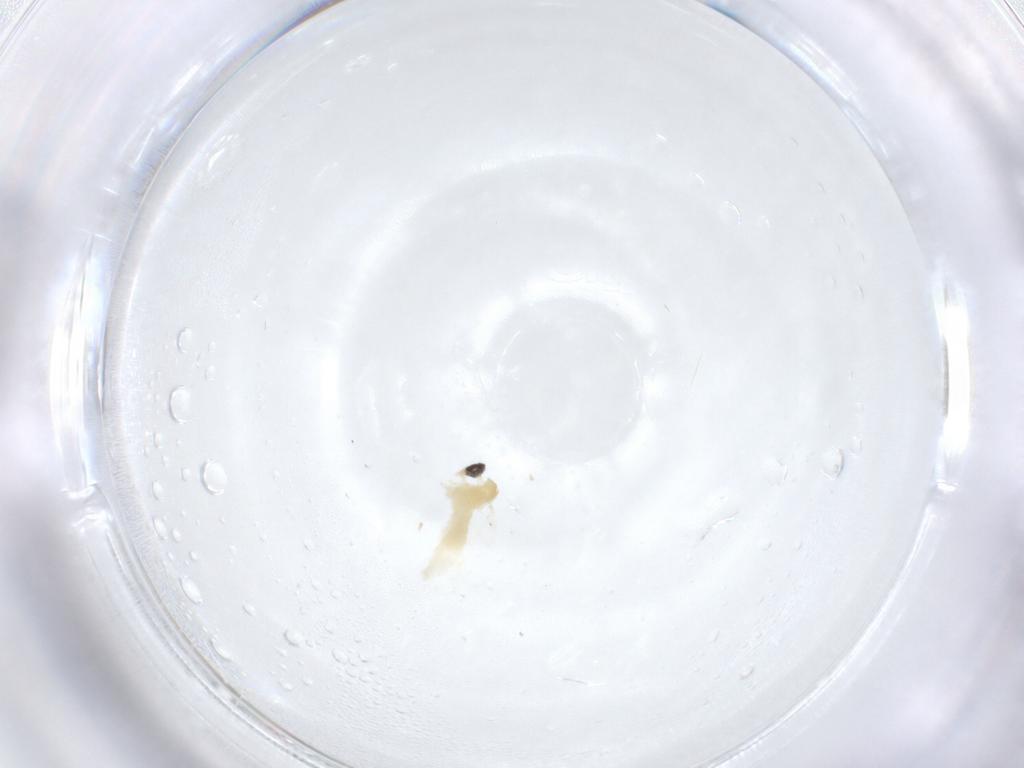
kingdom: Animalia
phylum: Arthropoda
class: Insecta
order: Diptera
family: Cecidomyiidae
